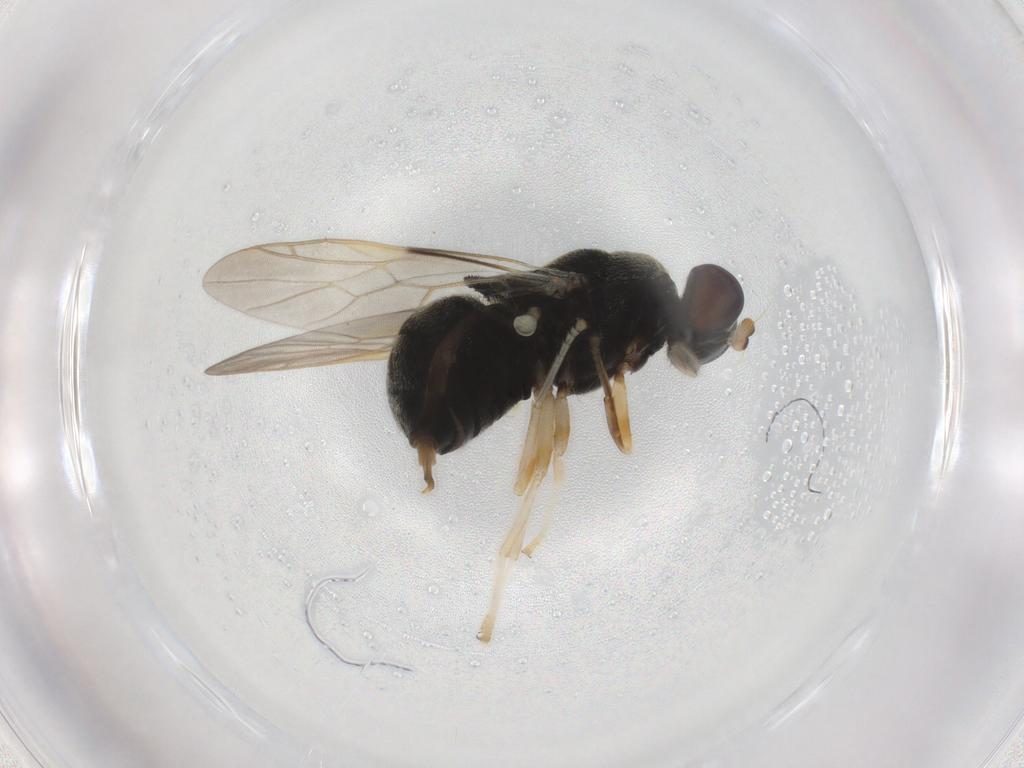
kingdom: Animalia
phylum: Arthropoda
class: Insecta
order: Diptera
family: Stratiomyidae
